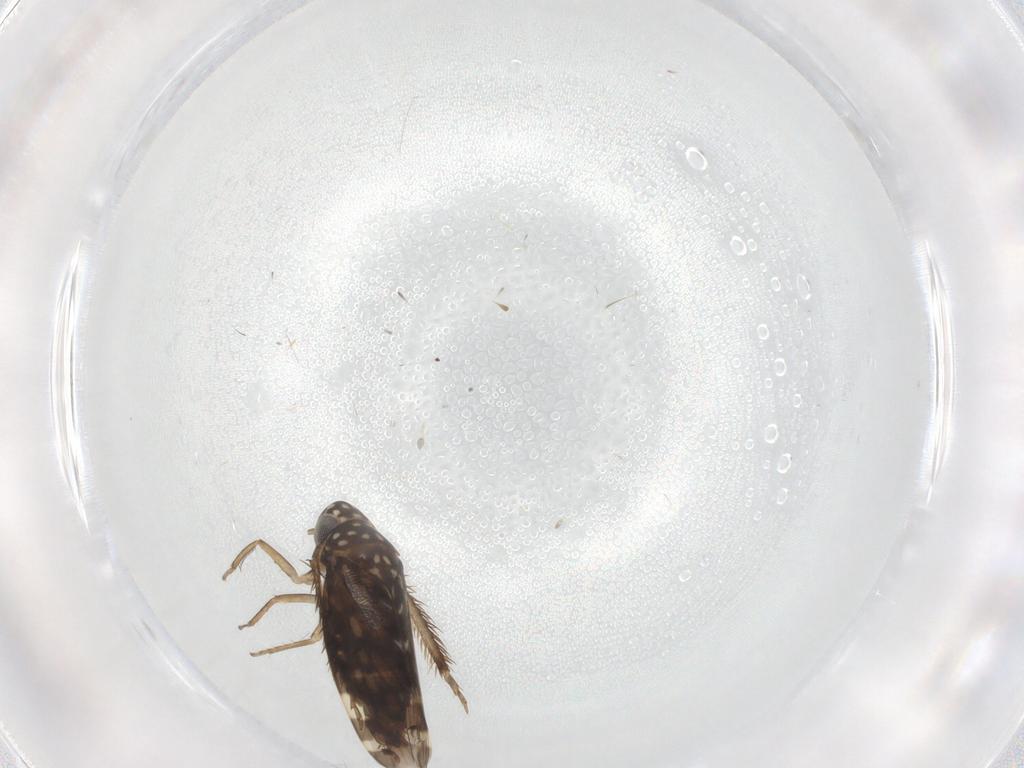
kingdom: Animalia
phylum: Arthropoda
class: Insecta
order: Hemiptera
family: Cicadellidae
